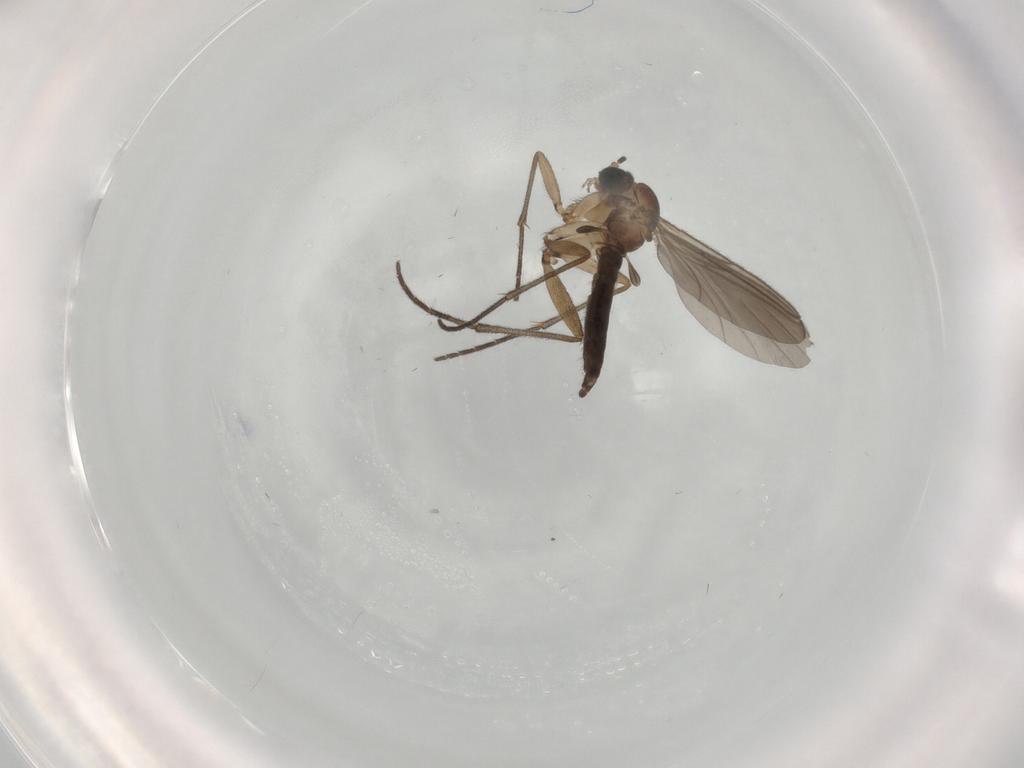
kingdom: Animalia
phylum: Arthropoda
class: Insecta
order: Diptera
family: Sciaridae
